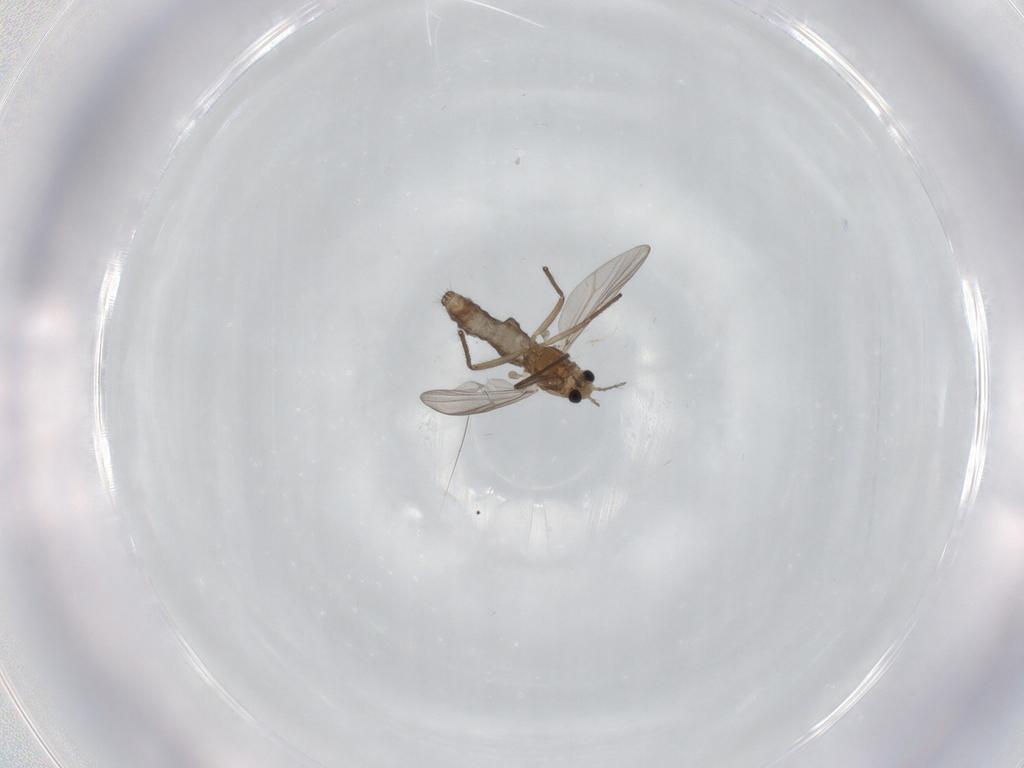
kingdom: Animalia
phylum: Arthropoda
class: Insecta
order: Diptera
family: Chironomidae
